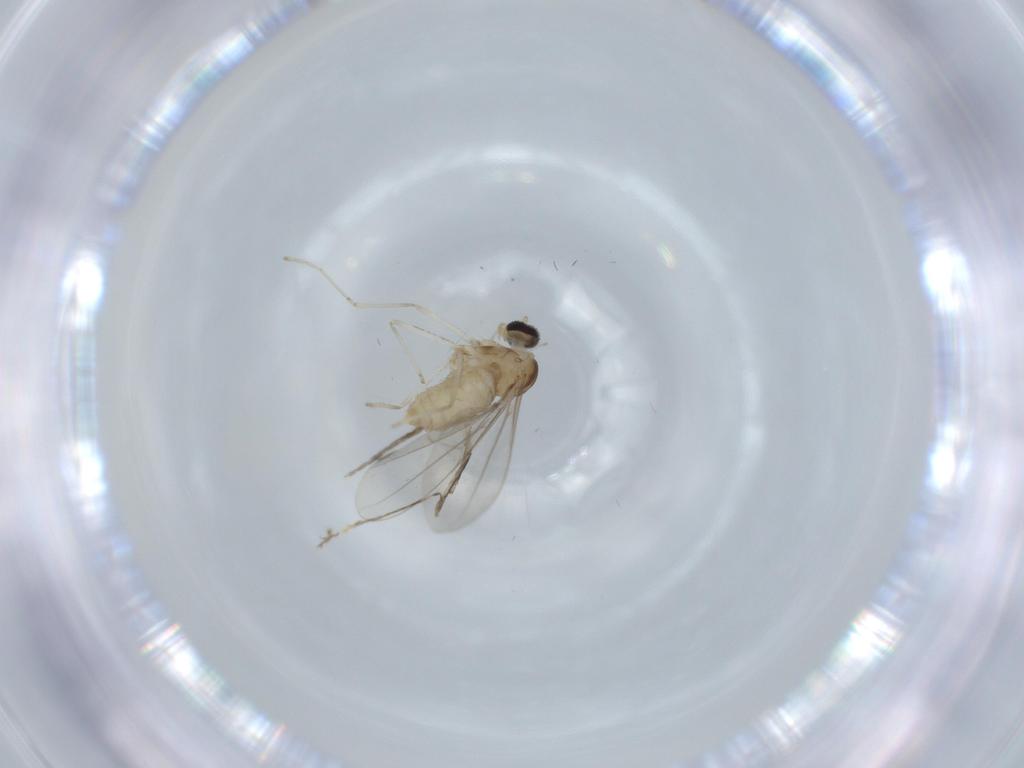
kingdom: Animalia
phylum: Arthropoda
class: Insecta
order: Diptera
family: Cecidomyiidae
